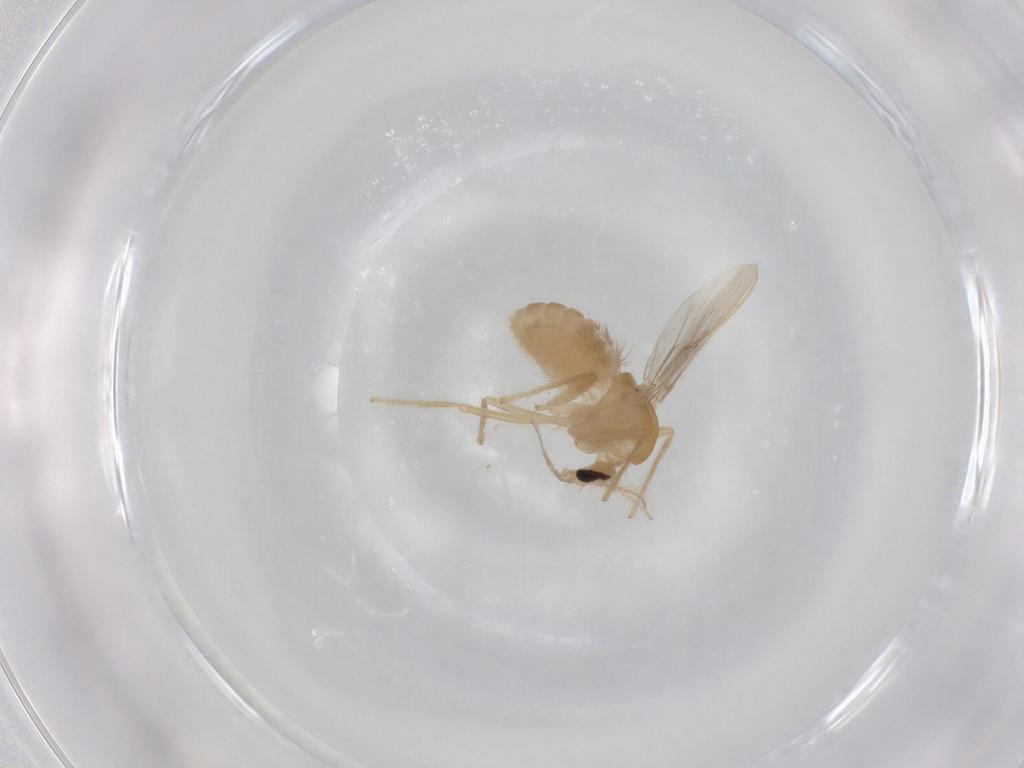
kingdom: Animalia
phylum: Arthropoda
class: Insecta
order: Diptera
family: Chironomidae
